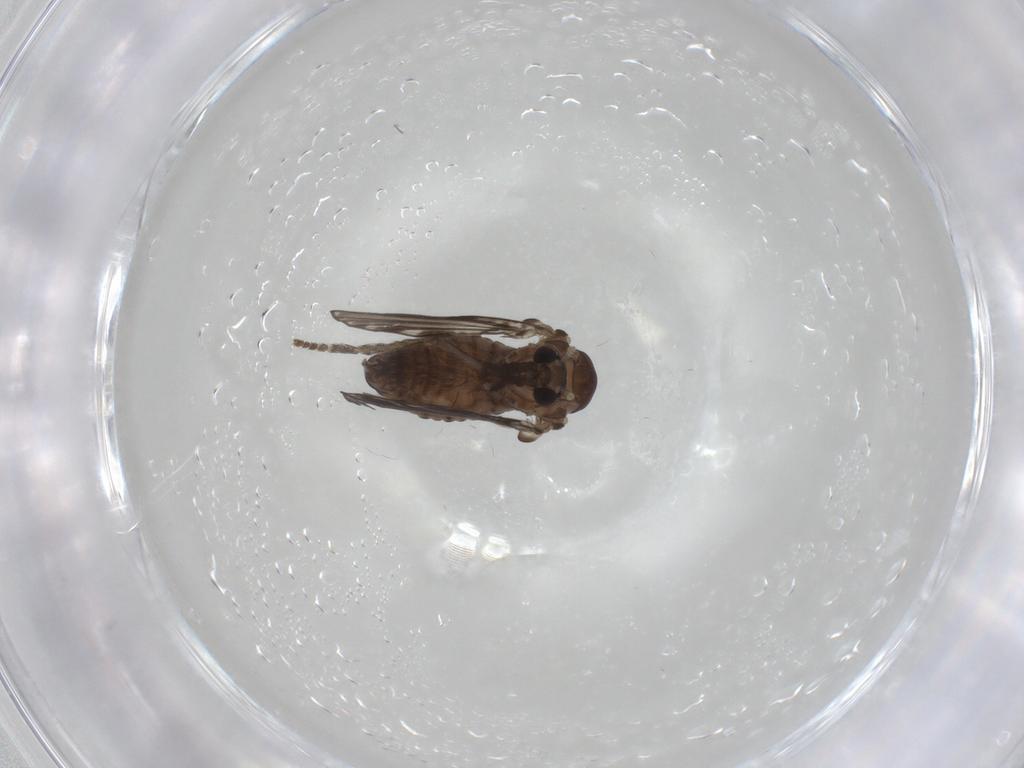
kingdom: Animalia
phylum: Arthropoda
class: Insecta
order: Diptera
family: Psychodidae
